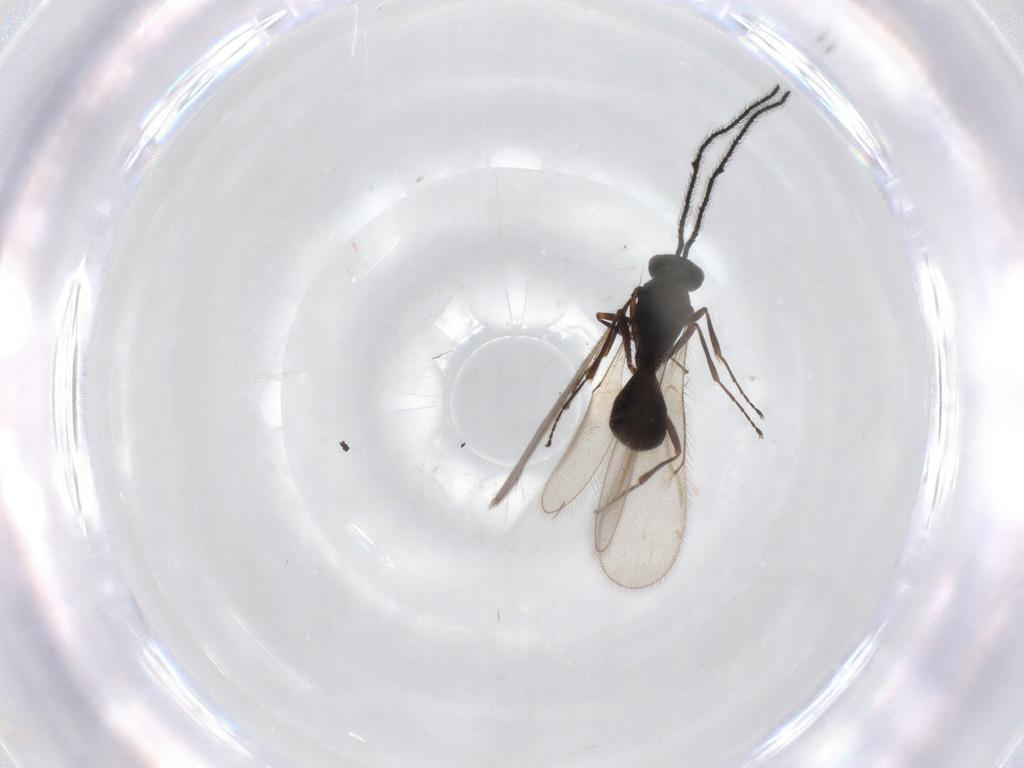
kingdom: Animalia
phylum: Arthropoda
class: Insecta
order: Hymenoptera
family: Scelionidae
